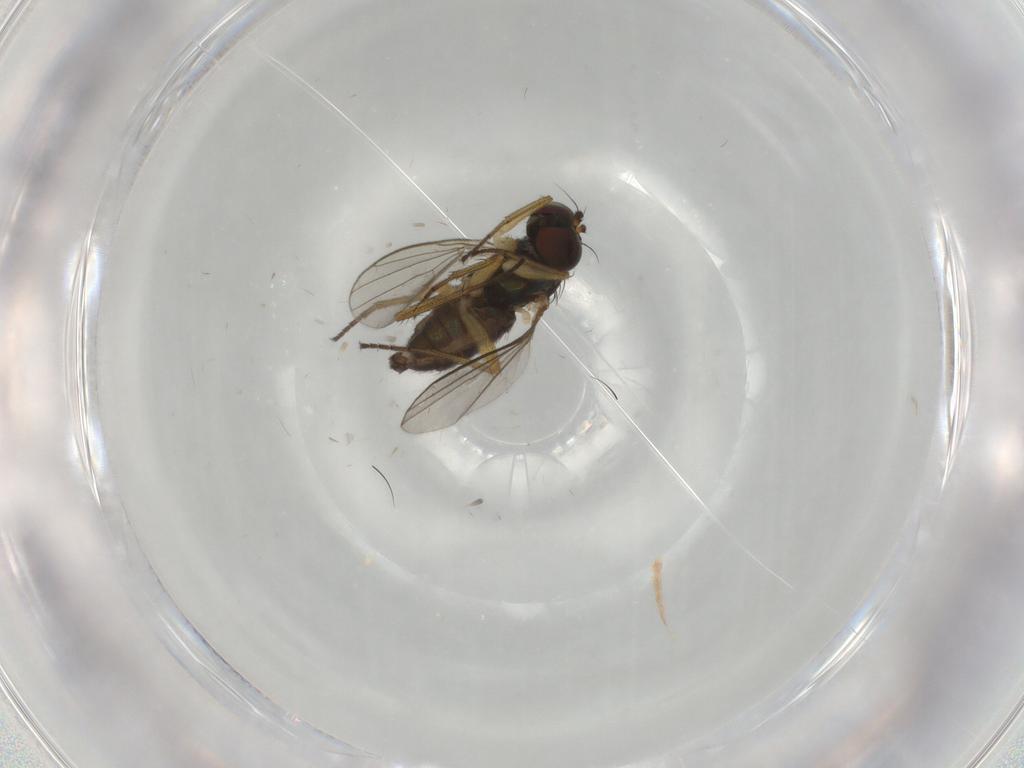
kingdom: Animalia
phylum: Arthropoda
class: Insecta
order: Diptera
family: Dolichopodidae
